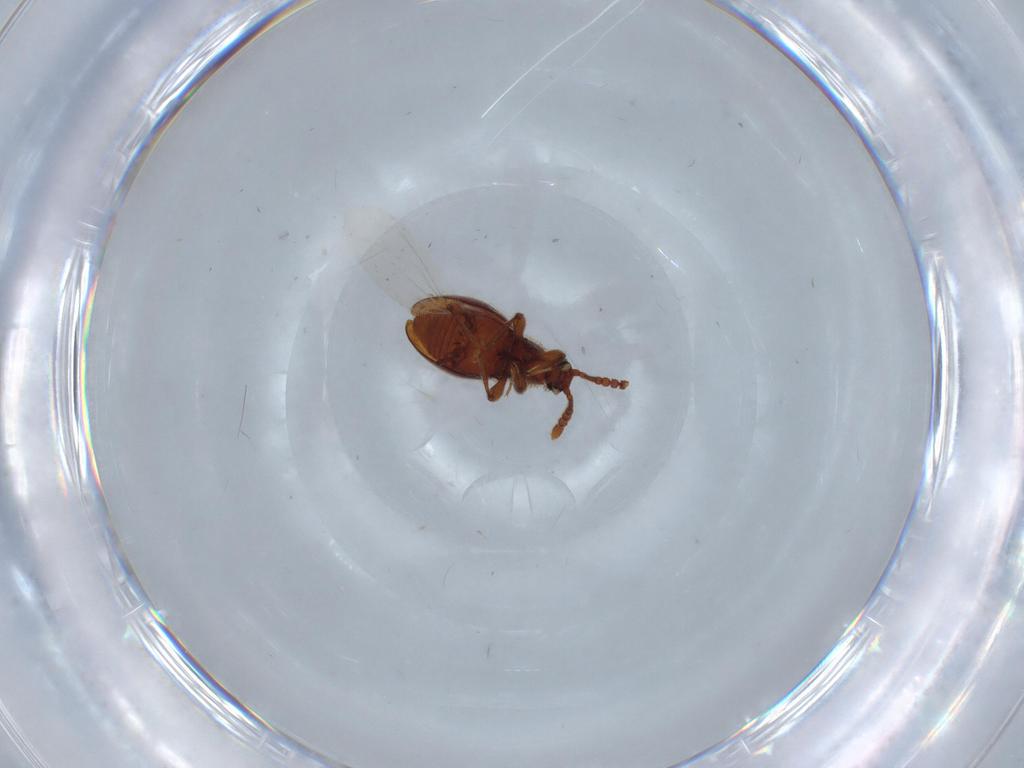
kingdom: Animalia
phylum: Arthropoda
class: Insecta
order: Coleoptera
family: Staphylinidae
